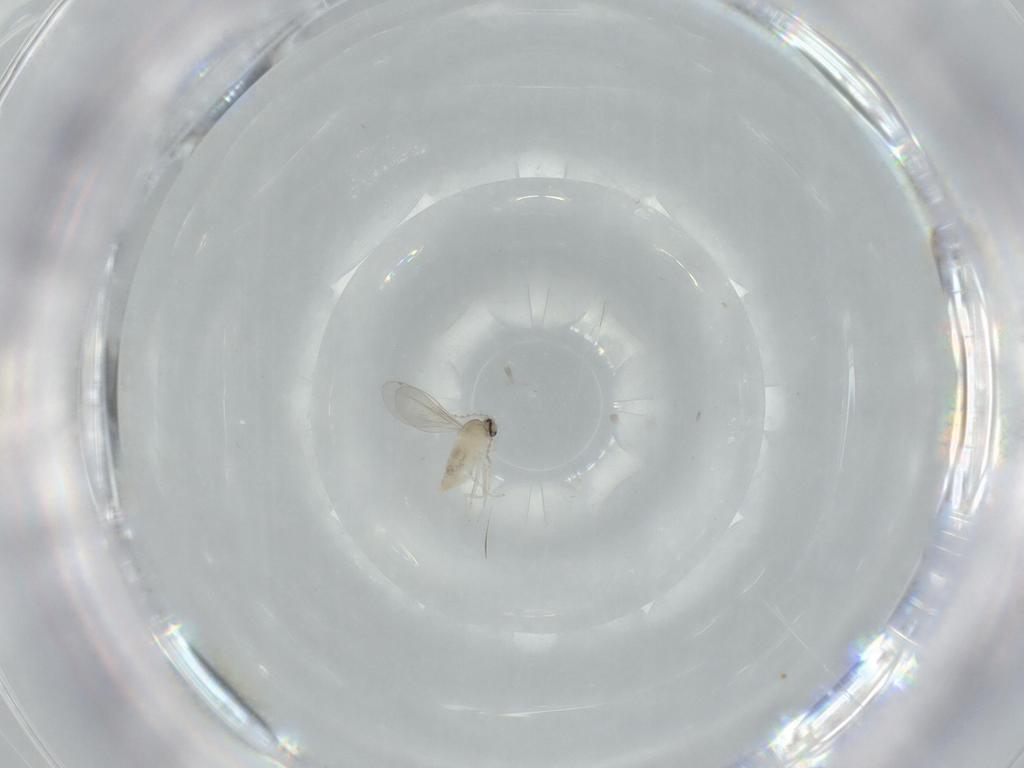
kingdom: Animalia
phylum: Arthropoda
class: Insecta
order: Diptera
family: Cecidomyiidae
